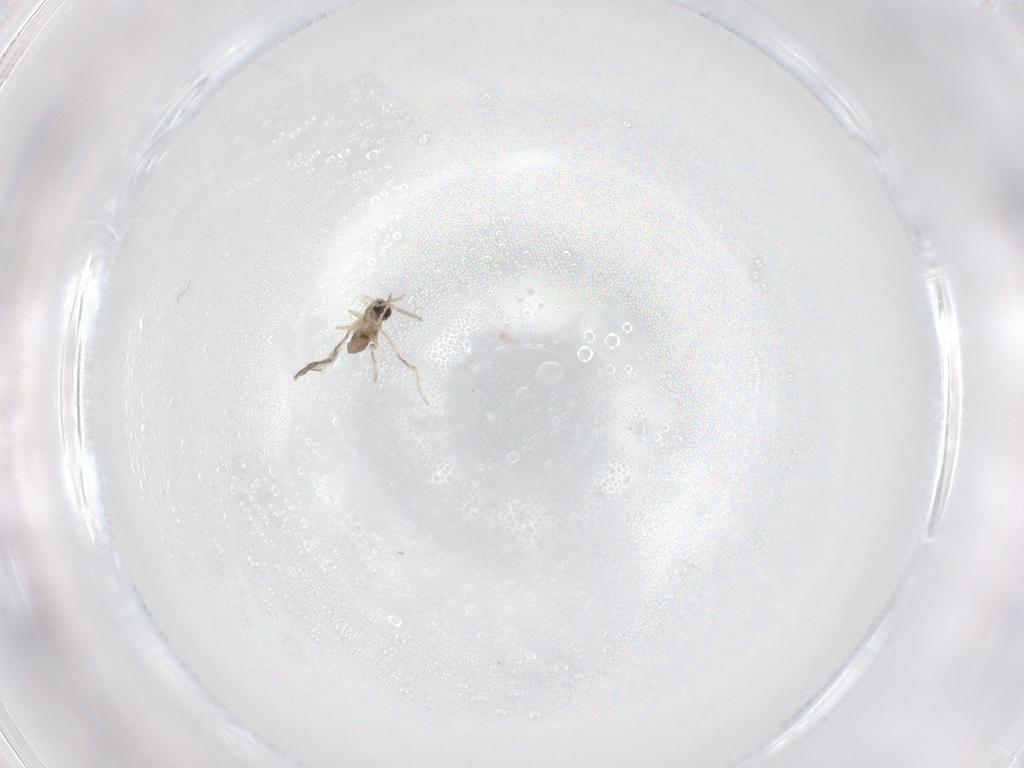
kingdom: Animalia
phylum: Arthropoda
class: Insecta
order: Diptera
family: Cecidomyiidae
